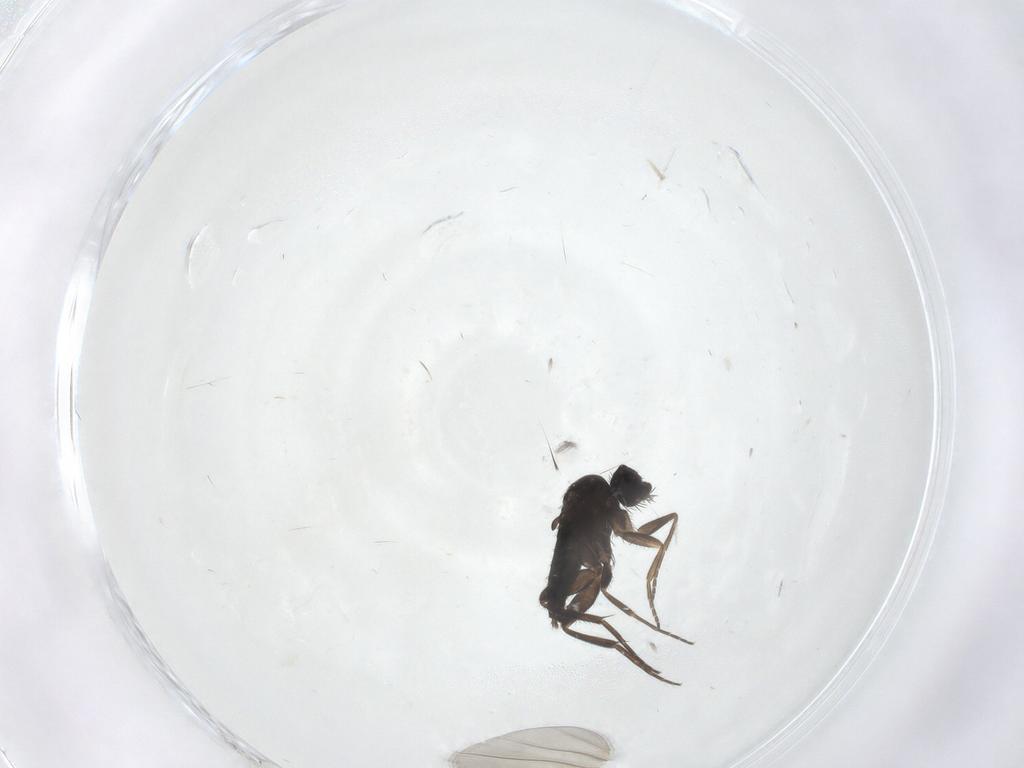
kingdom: Animalia
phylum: Arthropoda
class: Insecta
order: Diptera
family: Phoridae
